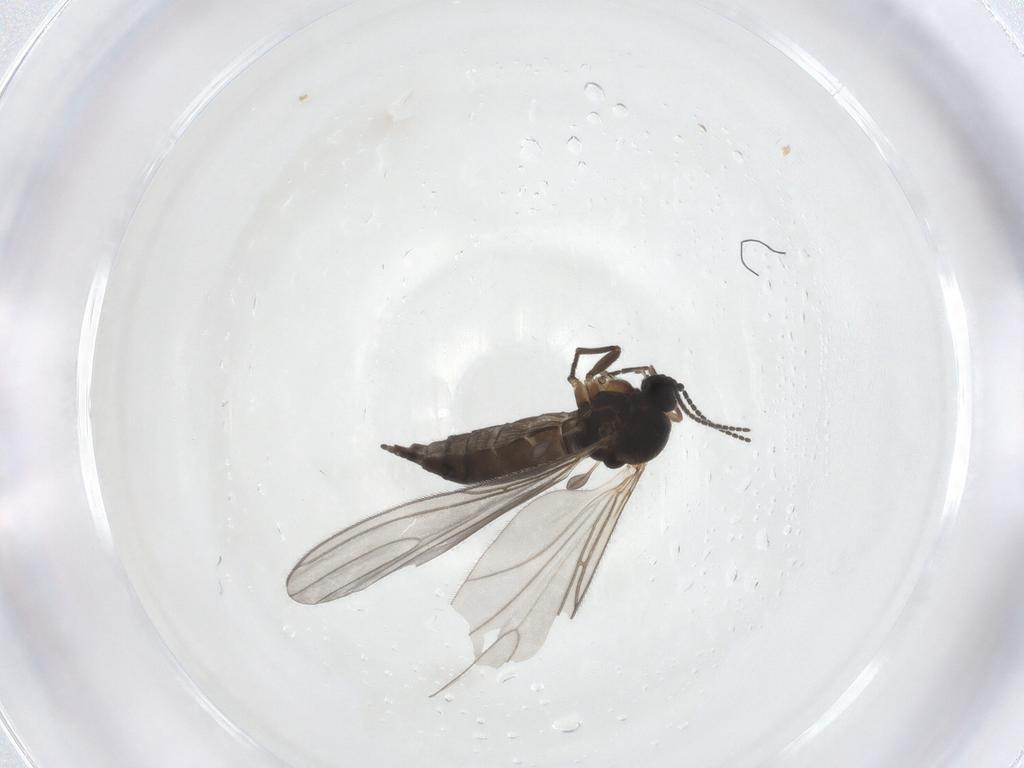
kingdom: Animalia
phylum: Arthropoda
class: Insecta
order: Diptera
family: Sciaridae
